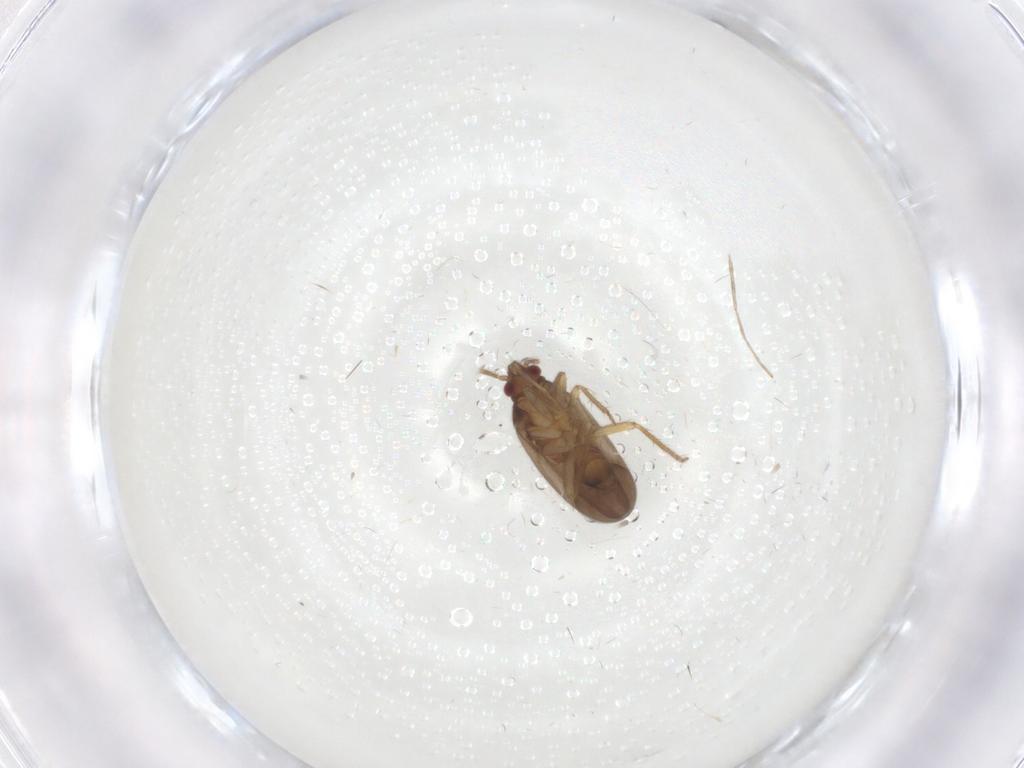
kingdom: Animalia
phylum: Arthropoda
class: Insecta
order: Hemiptera
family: Ceratocombidae
